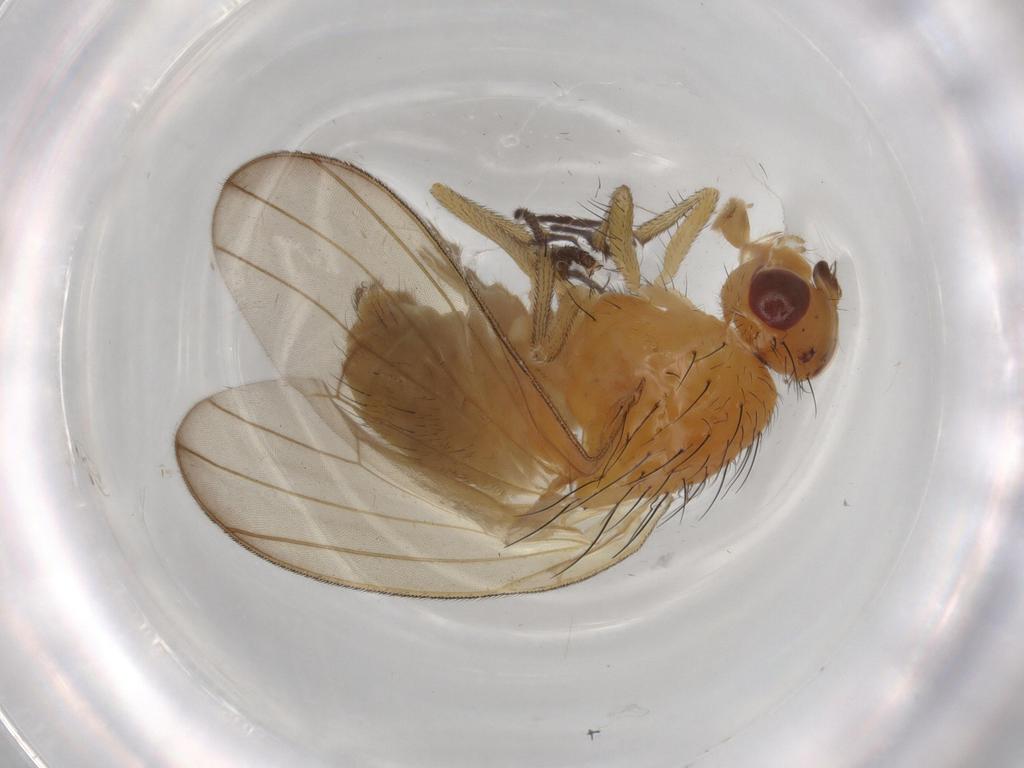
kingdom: Animalia
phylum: Arthropoda
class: Insecta
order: Diptera
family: Lauxaniidae
